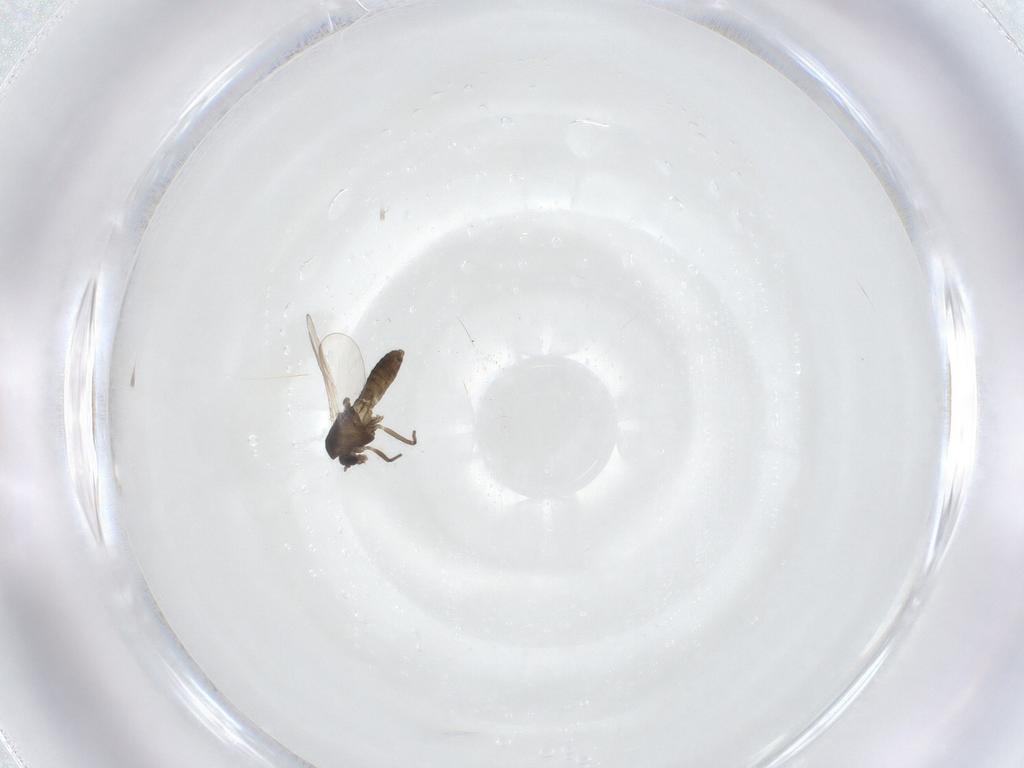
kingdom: Animalia
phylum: Arthropoda
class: Insecta
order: Diptera
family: Chironomidae
